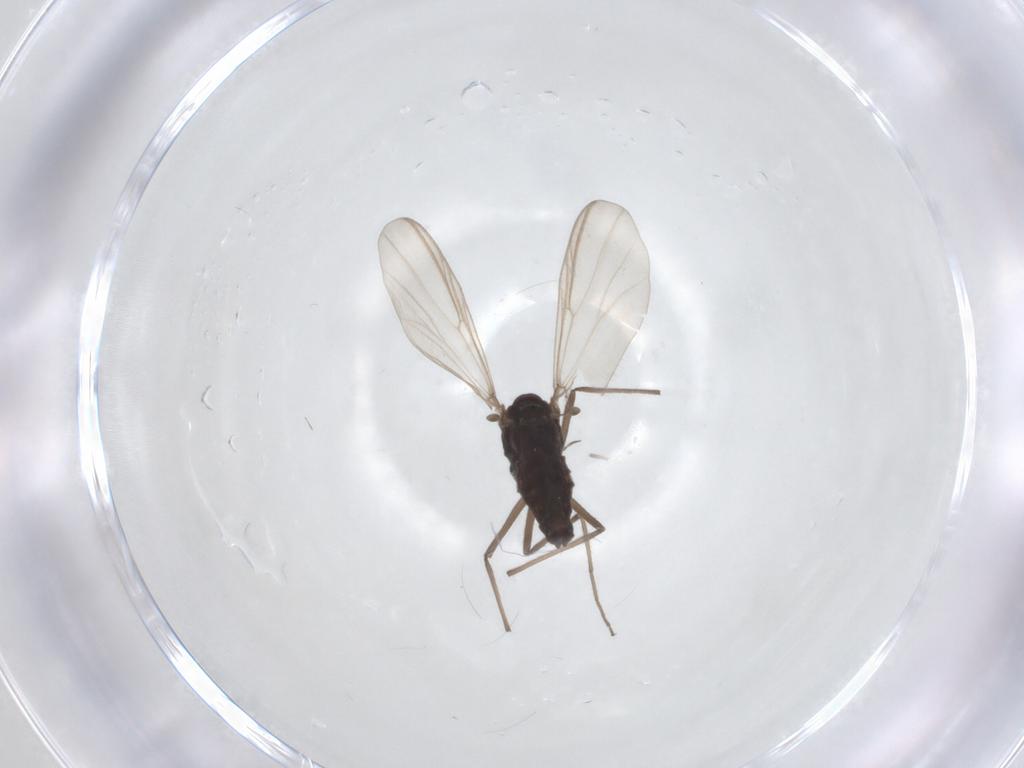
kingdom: Animalia
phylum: Arthropoda
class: Insecta
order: Diptera
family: Chironomidae
